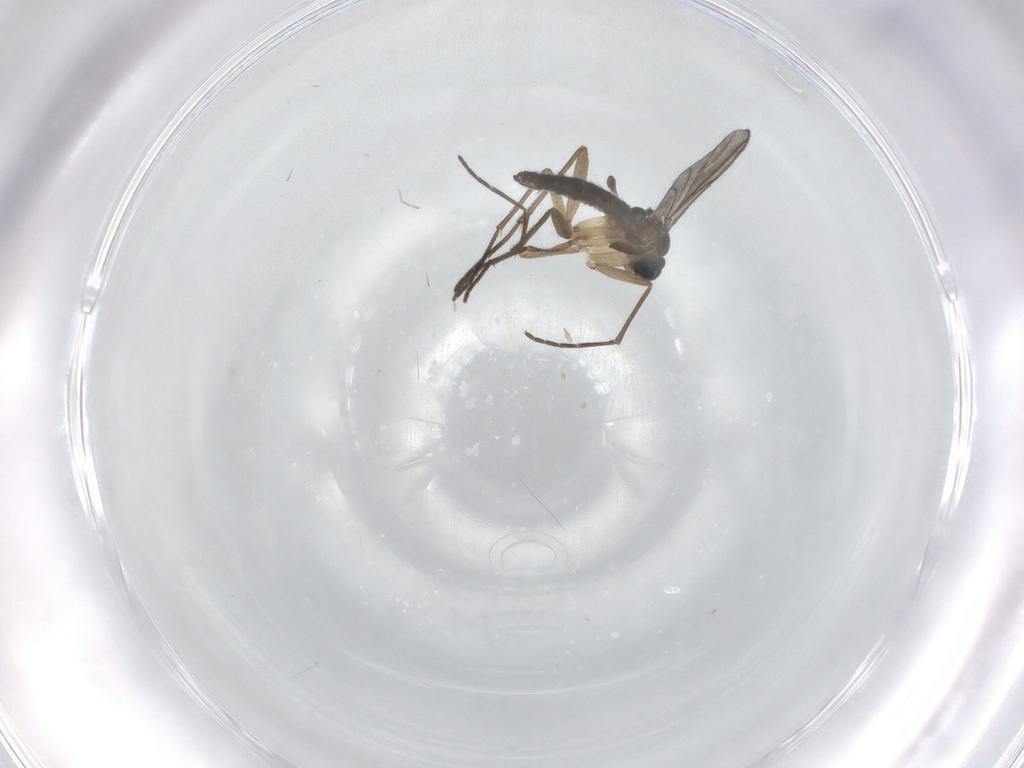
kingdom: Animalia
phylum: Arthropoda
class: Insecta
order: Diptera
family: Sciaridae
